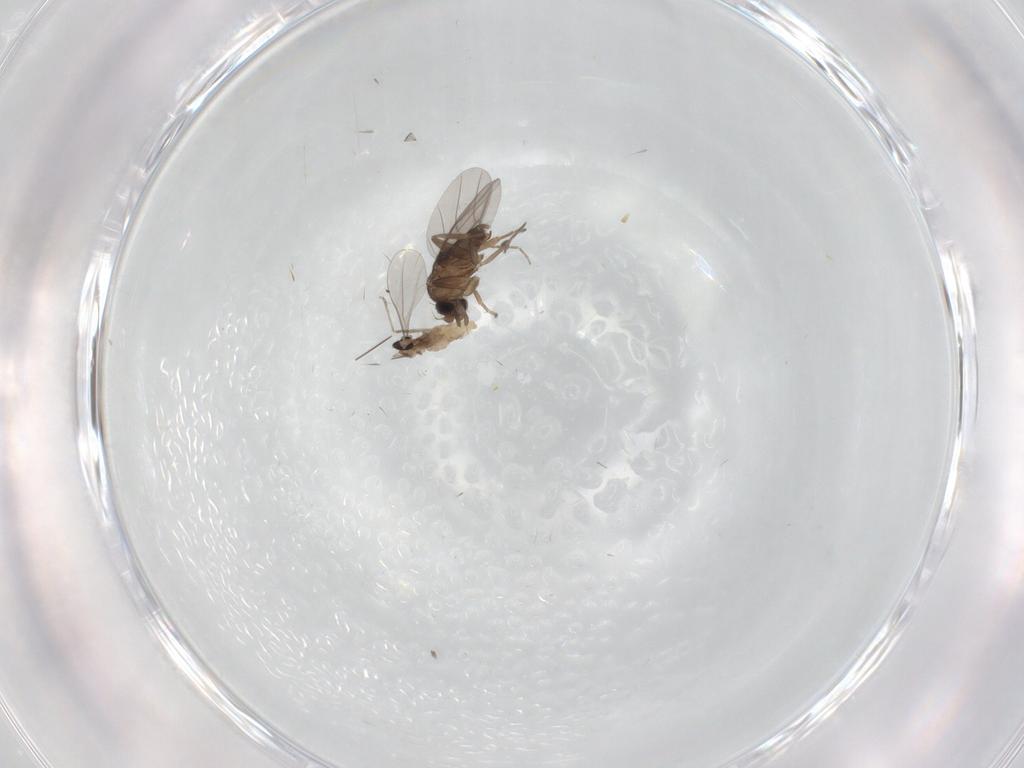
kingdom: Animalia
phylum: Arthropoda
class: Insecta
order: Diptera
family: Phoridae
